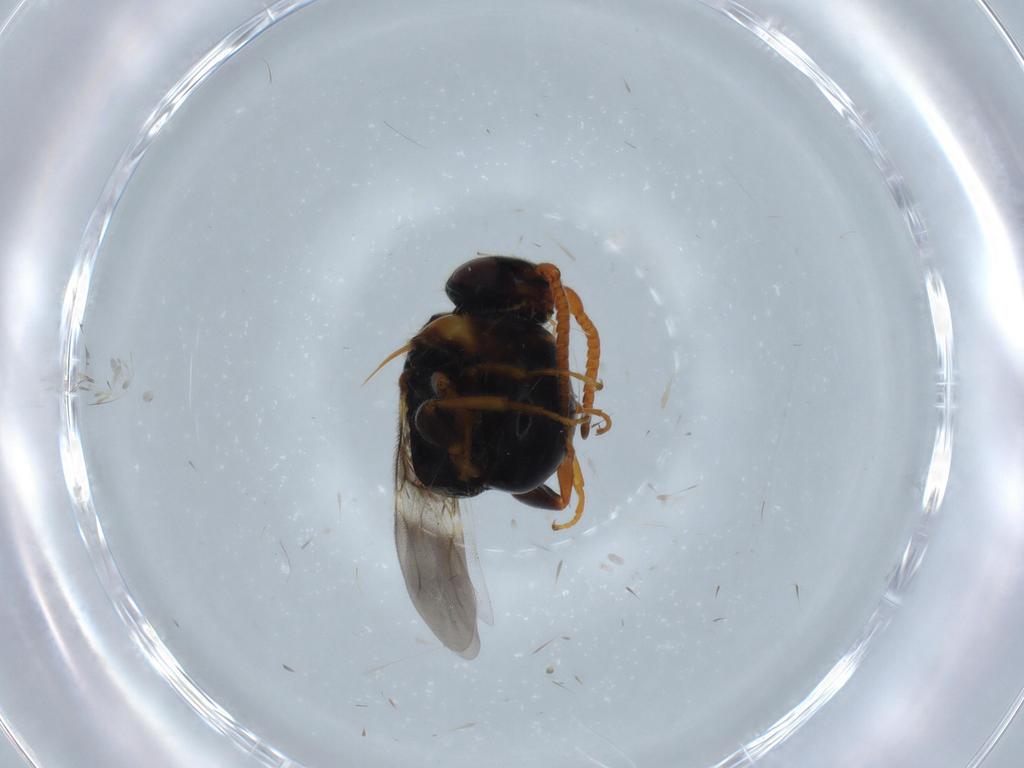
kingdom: Animalia
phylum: Arthropoda
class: Insecta
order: Hymenoptera
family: Bethylidae
